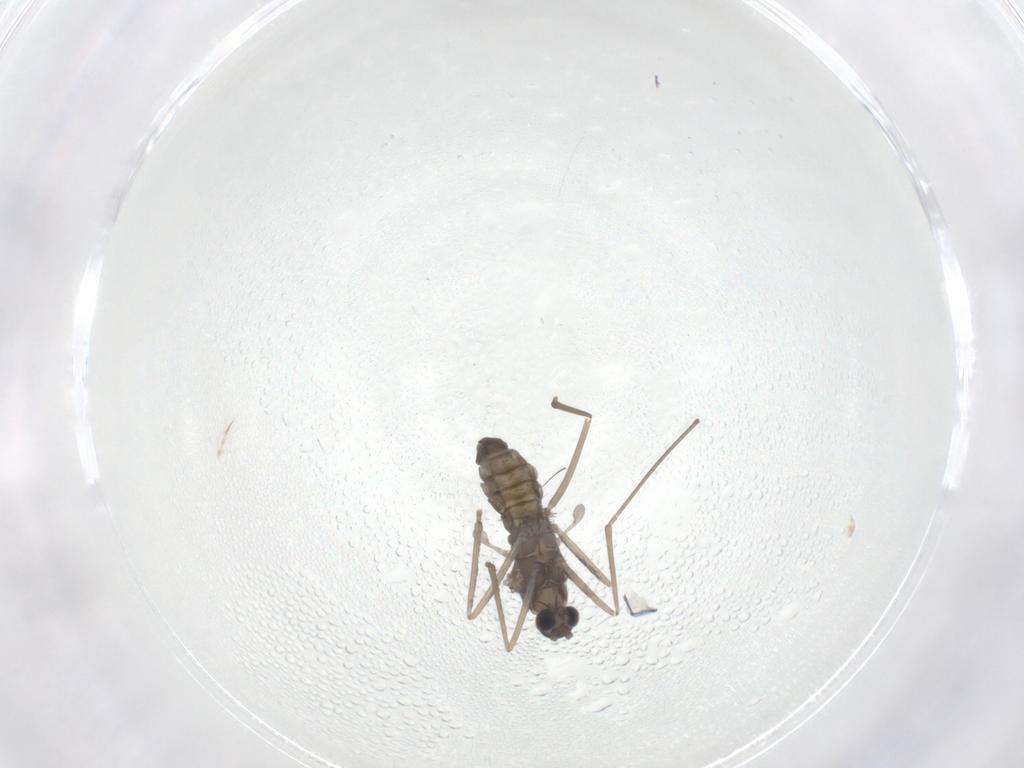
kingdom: Animalia
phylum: Arthropoda
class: Insecta
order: Diptera
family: Chironomidae
